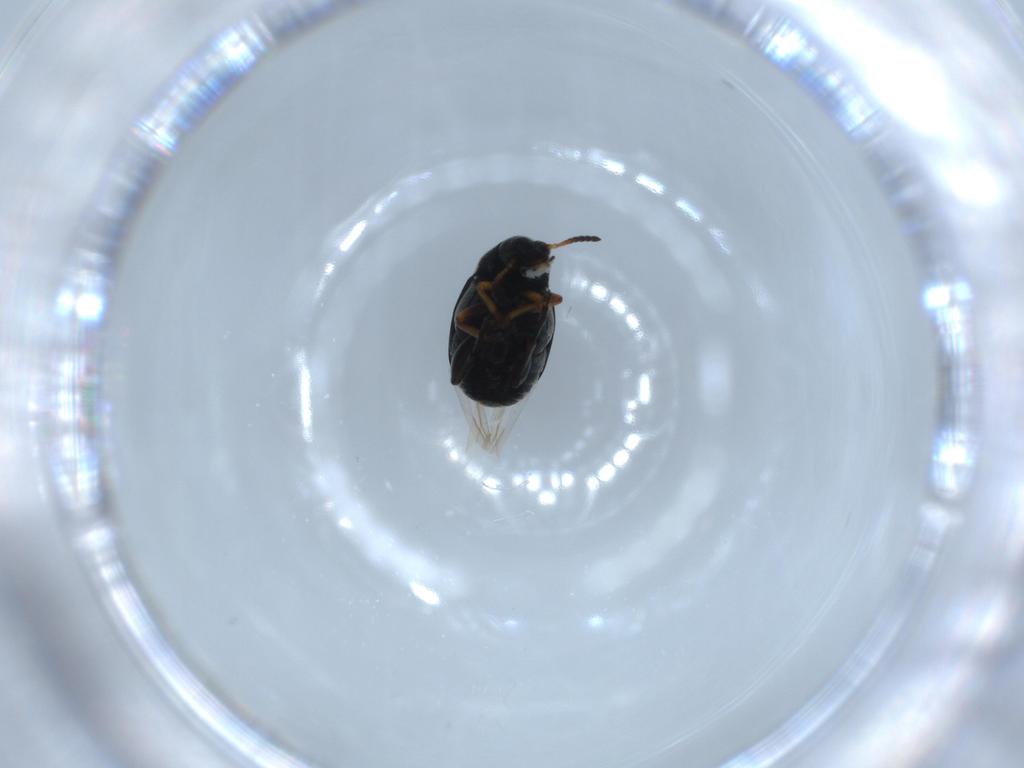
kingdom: Animalia
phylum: Arthropoda
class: Insecta
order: Coleoptera
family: Chrysomelidae
